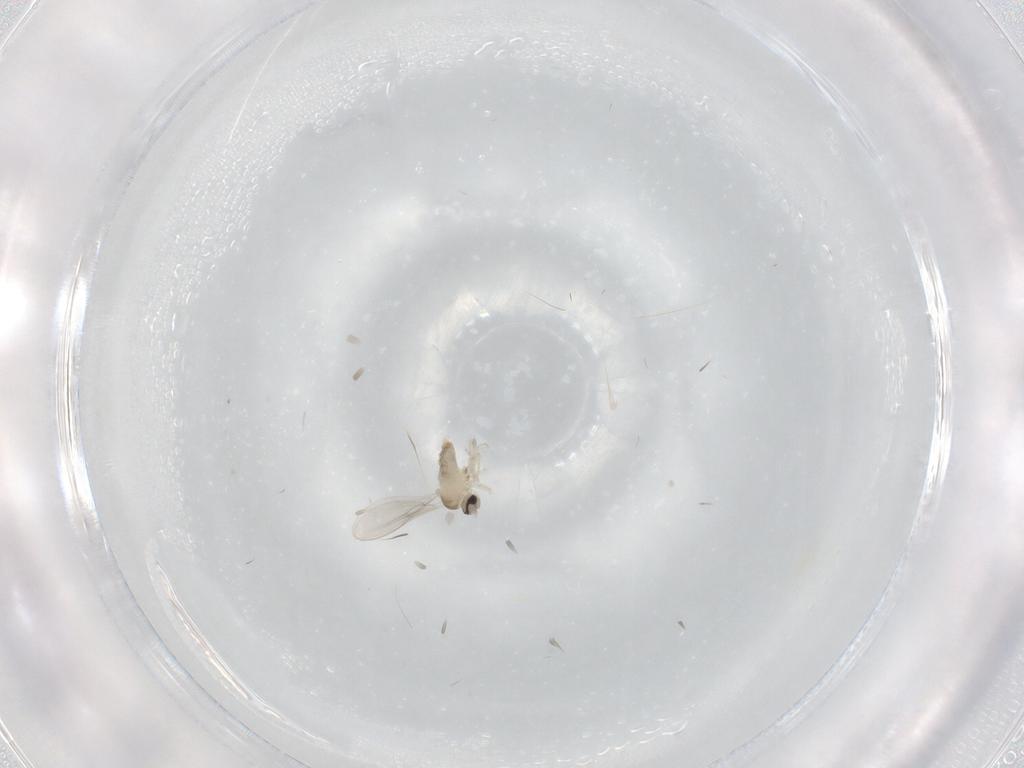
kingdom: Animalia
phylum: Arthropoda
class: Insecta
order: Diptera
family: Psychodidae
